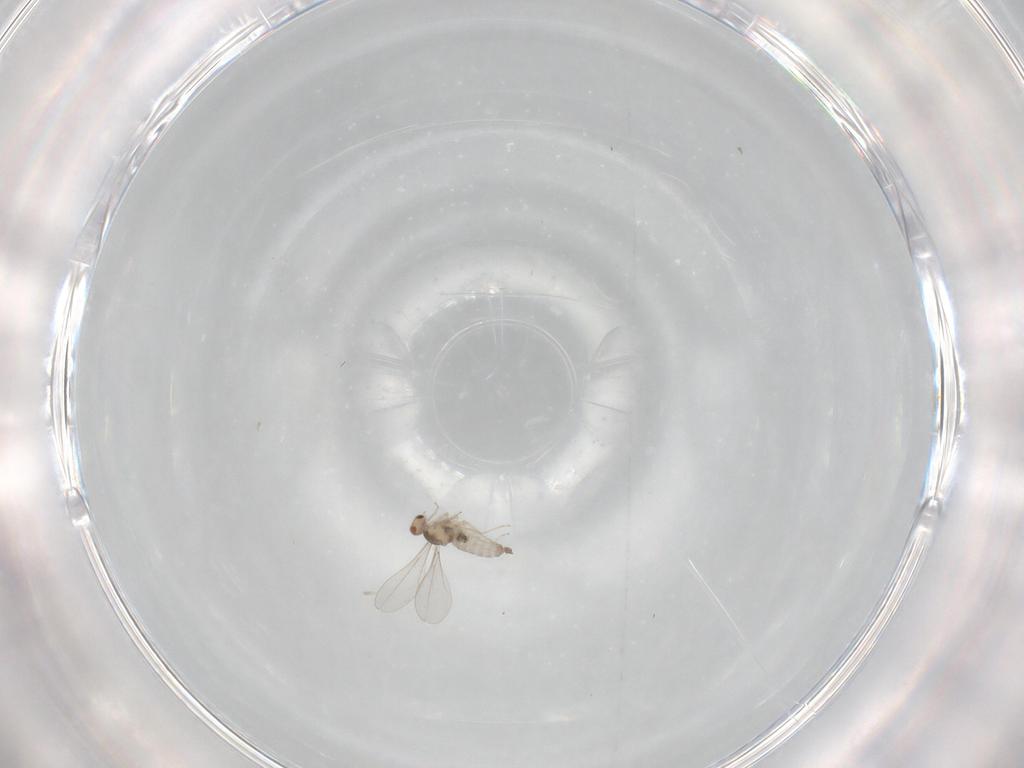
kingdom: Animalia
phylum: Arthropoda
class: Insecta
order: Diptera
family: Cecidomyiidae
